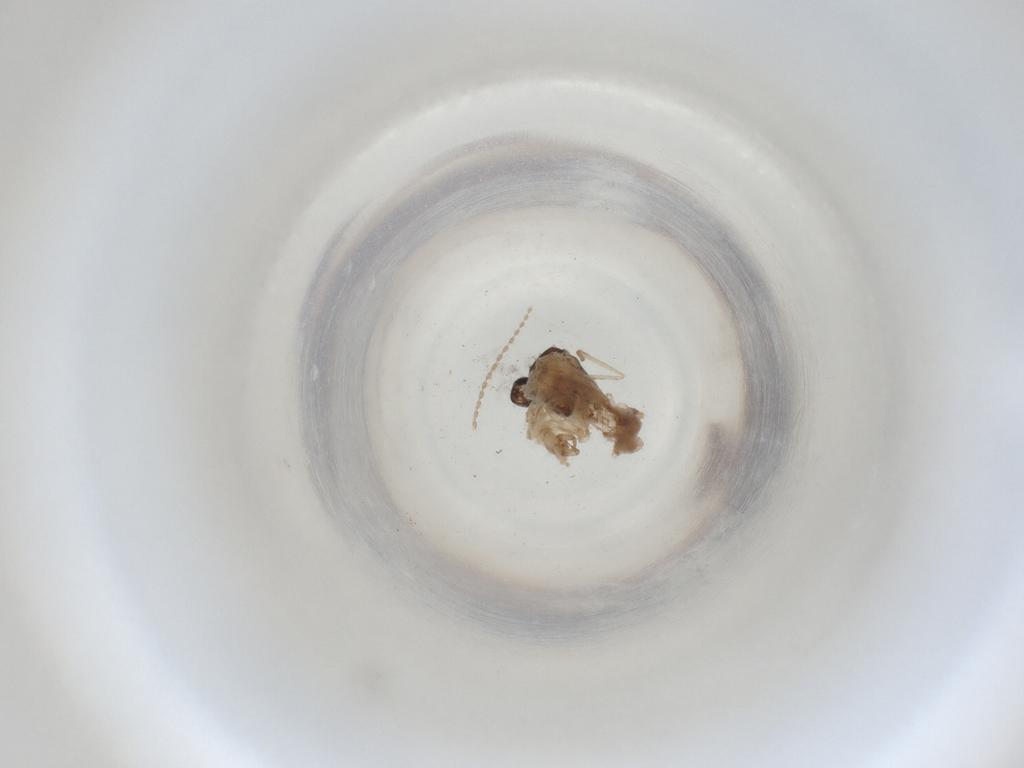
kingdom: Animalia
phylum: Arthropoda
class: Insecta
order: Diptera
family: Cecidomyiidae
